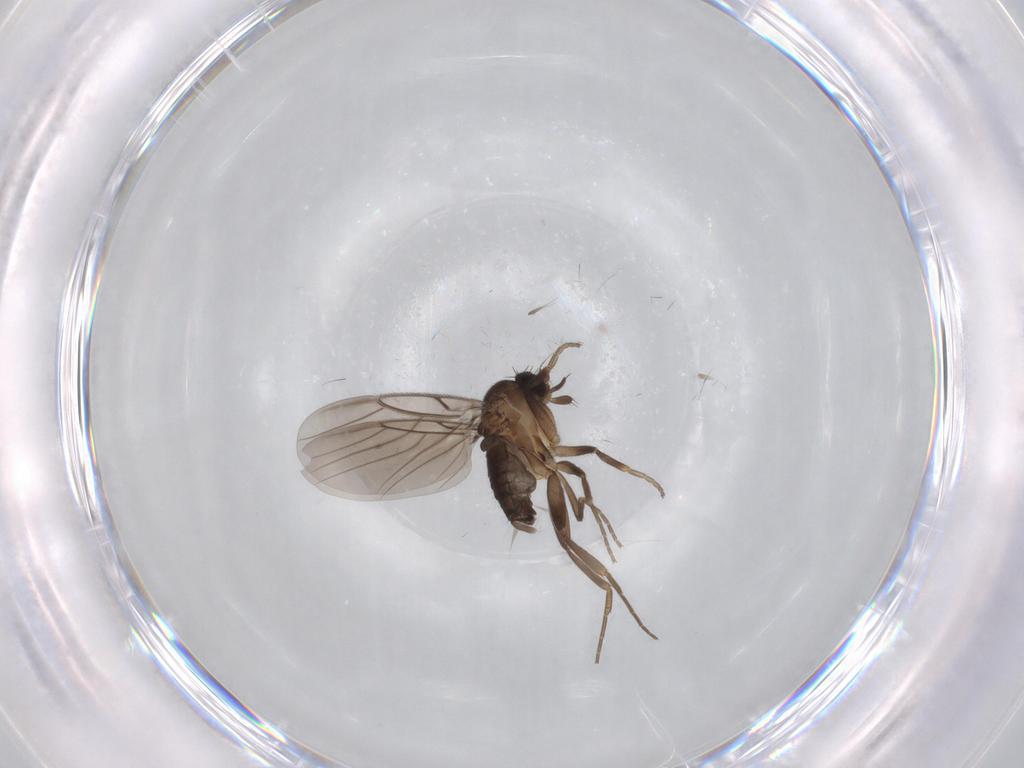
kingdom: Animalia
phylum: Arthropoda
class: Insecta
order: Diptera
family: Phoridae
